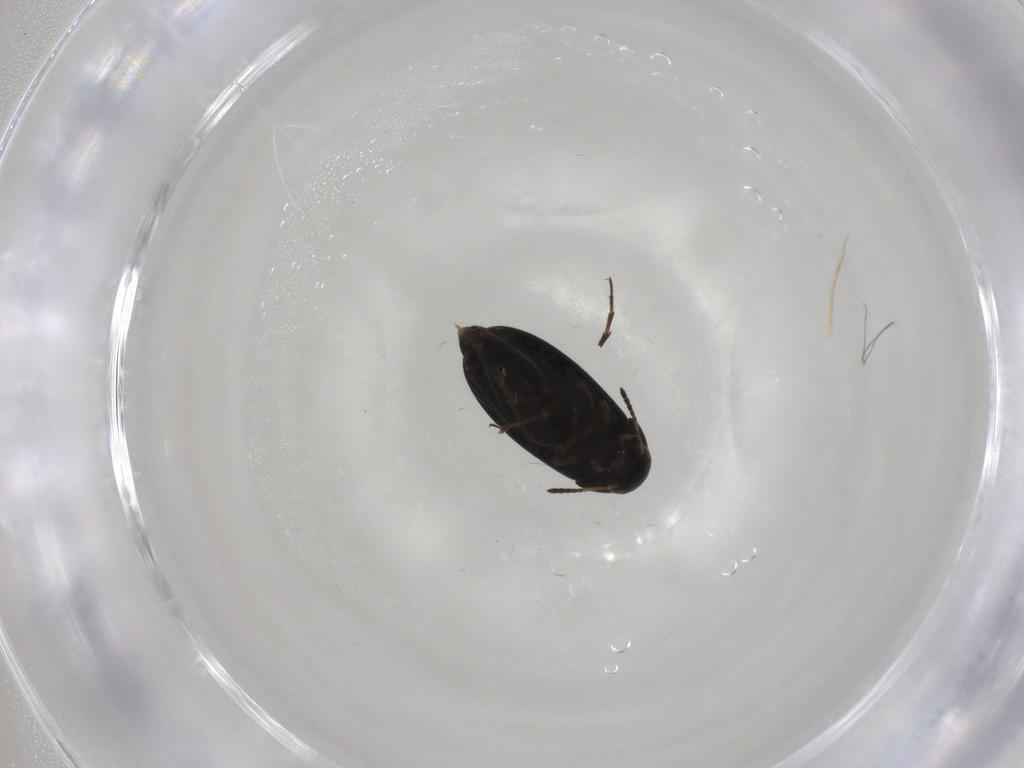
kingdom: Animalia
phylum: Arthropoda
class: Insecta
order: Coleoptera
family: Scraptiidae
